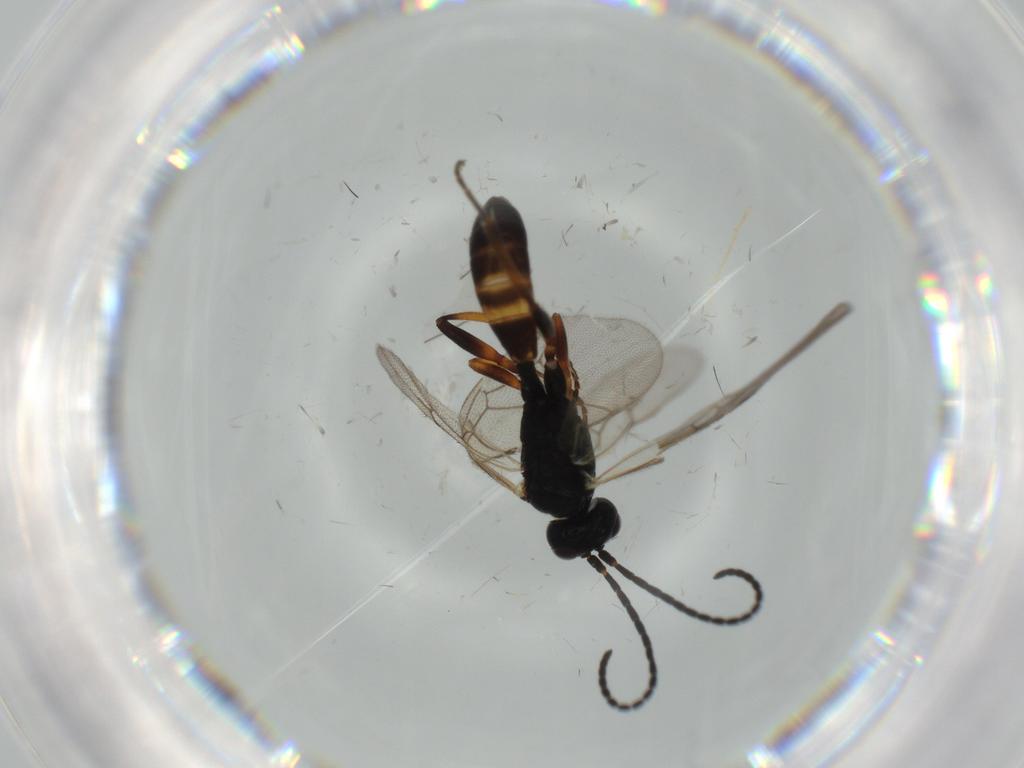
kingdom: Animalia
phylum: Arthropoda
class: Insecta
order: Hymenoptera
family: Ichneumonidae
